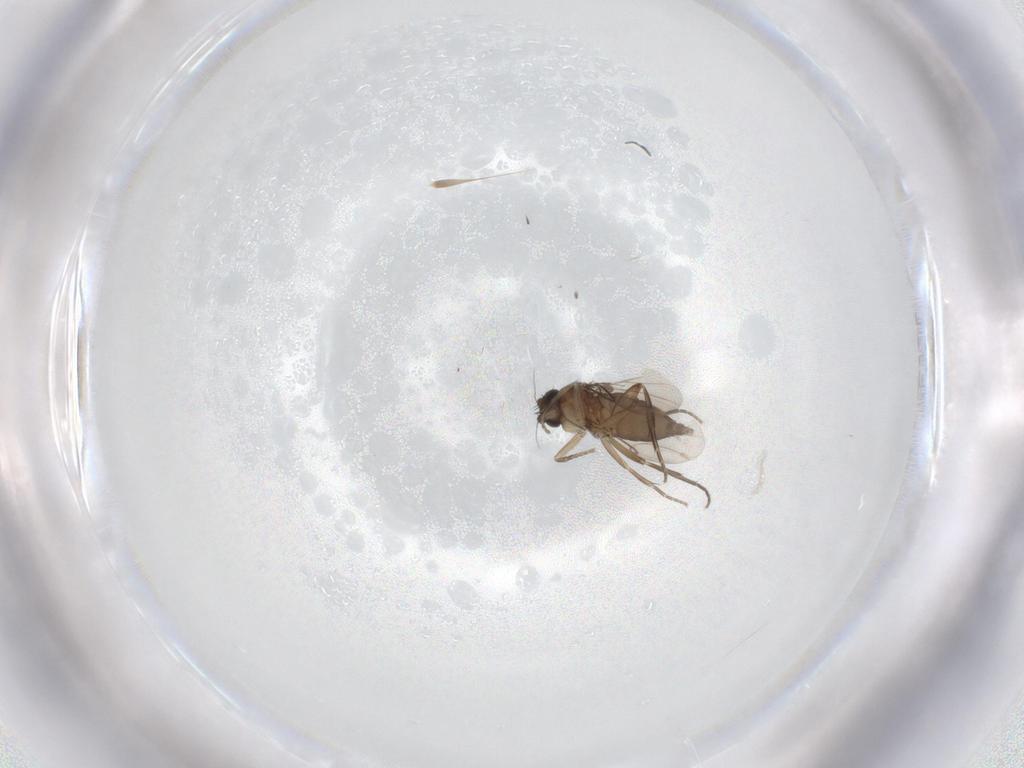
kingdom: Animalia
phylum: Arthropoda
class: Insecta
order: Diptera
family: Phoridae
